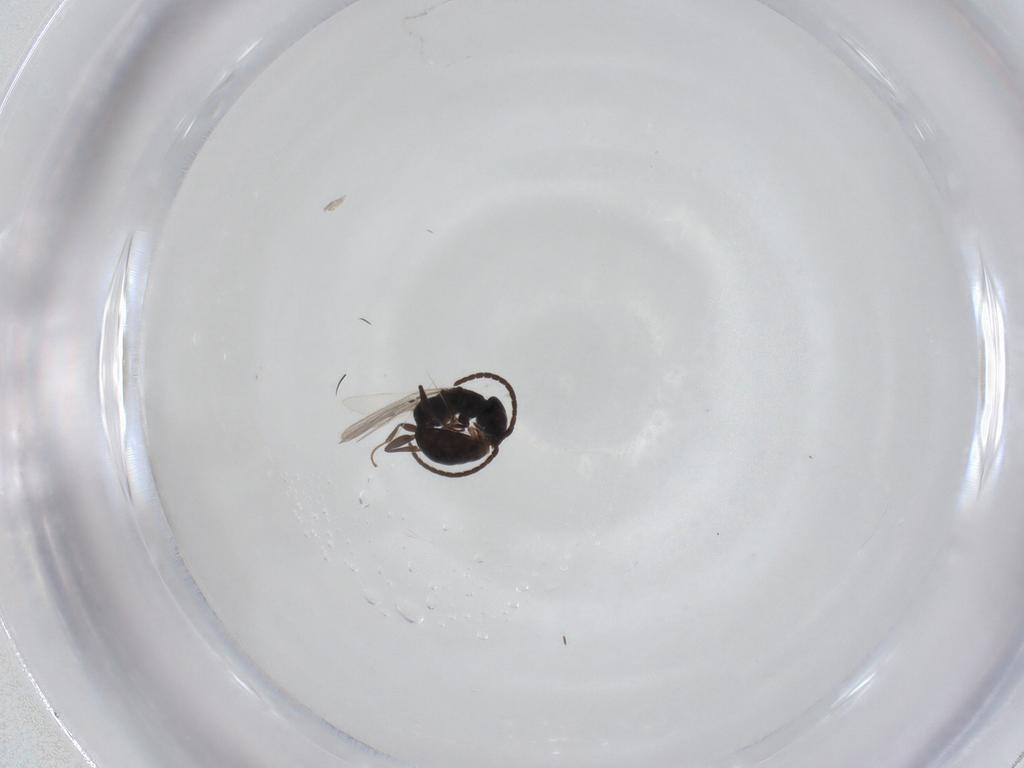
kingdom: Animalia
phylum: Arthropoda
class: Insecta
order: Hymenoptera
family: Bethylidae
